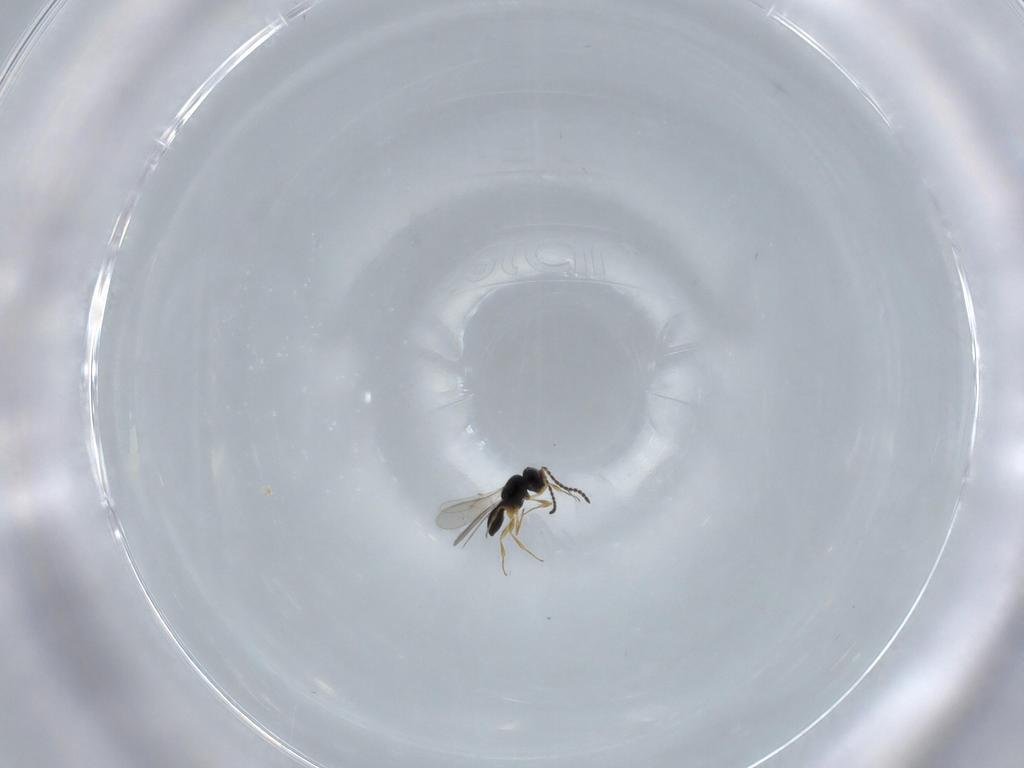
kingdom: Animalia
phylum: Arthropoda
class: Insecta
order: Hymenoptera
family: Scelionidae
